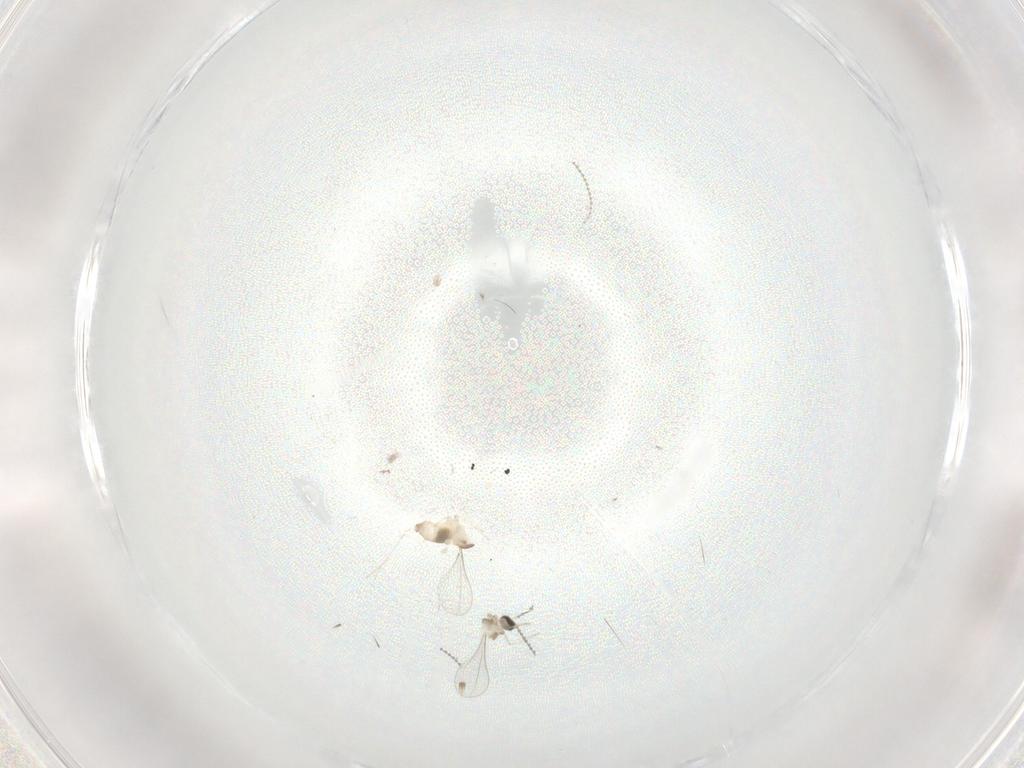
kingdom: Animalia
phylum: Arthropoda
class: Insecta
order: Diptera
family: Cecidomyiidae
